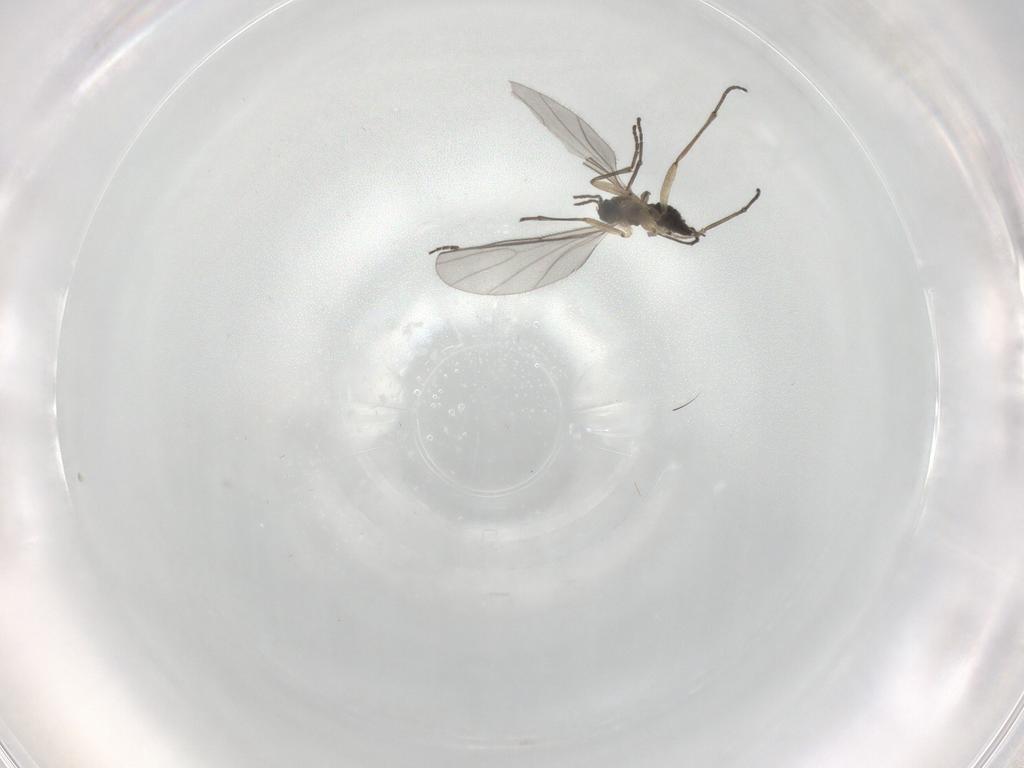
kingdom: Animalia
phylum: Arthropoda
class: Insecta
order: Diptera
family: Sciaridae
